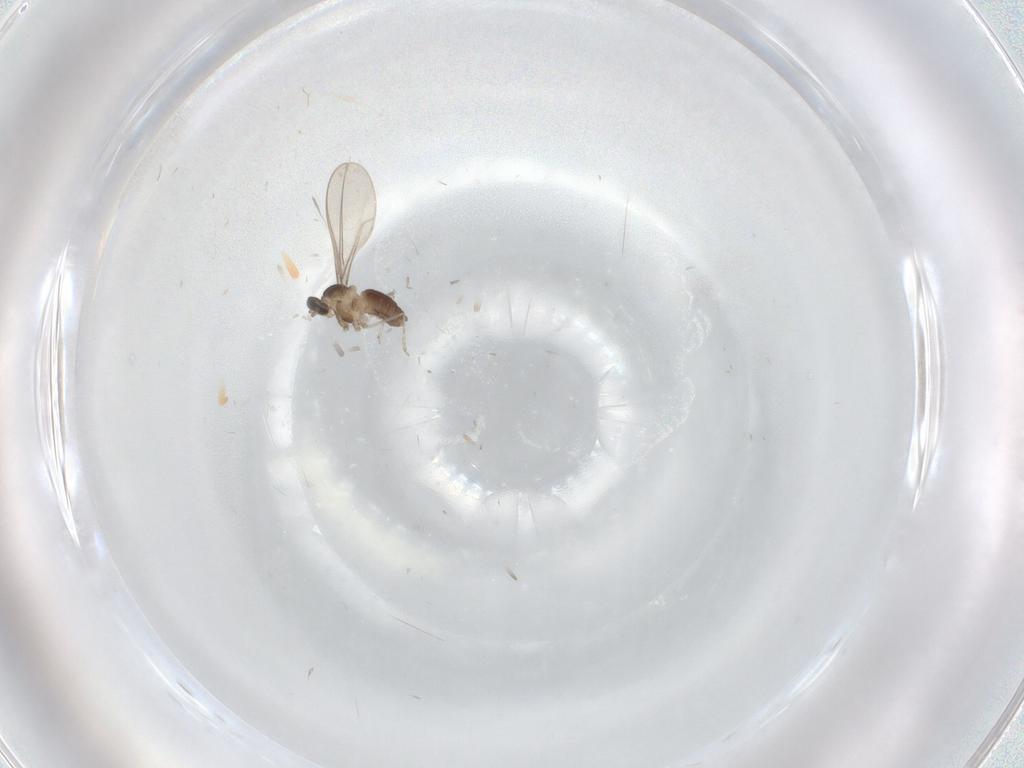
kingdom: Animalia
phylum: Arthropoda
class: Insecta
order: Diptera
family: Cecidomyiidae
